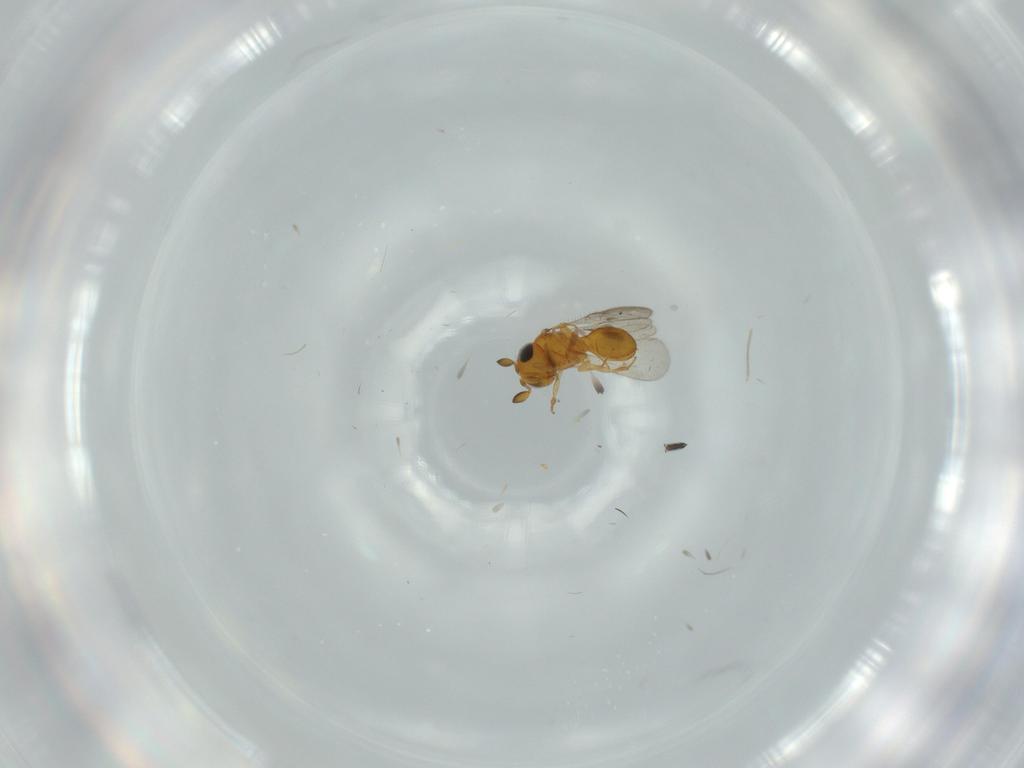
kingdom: Animalia
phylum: Arthropoda
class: Insecta
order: Hymenoptera
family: Scelionidae
